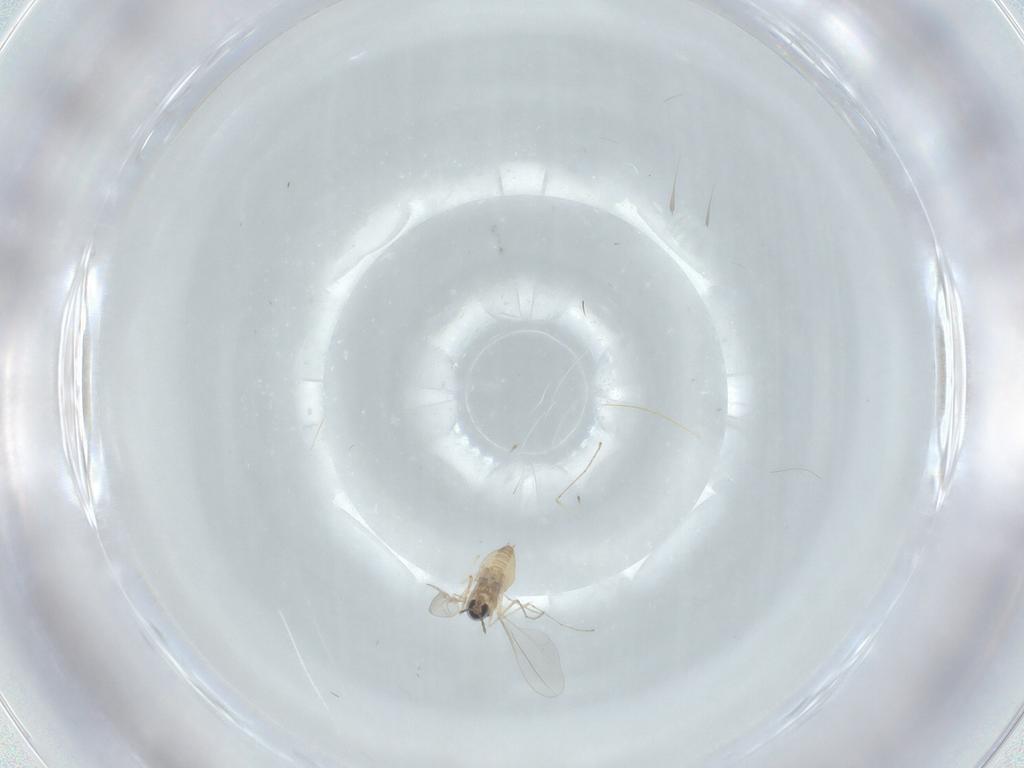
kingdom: Animalia
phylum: Arthropoda
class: Insecta
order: Diptera
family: Cecidomyiidae
